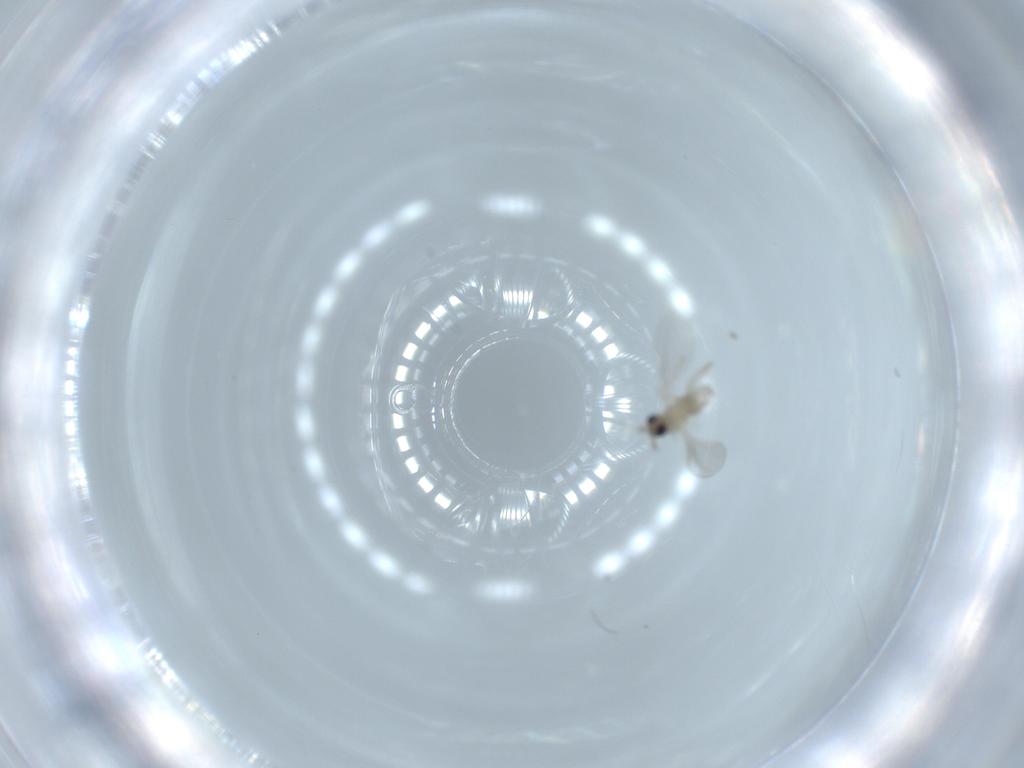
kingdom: Animalia
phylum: Arthropoda
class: Insecta
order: Diptera
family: Cecidomyiidae
